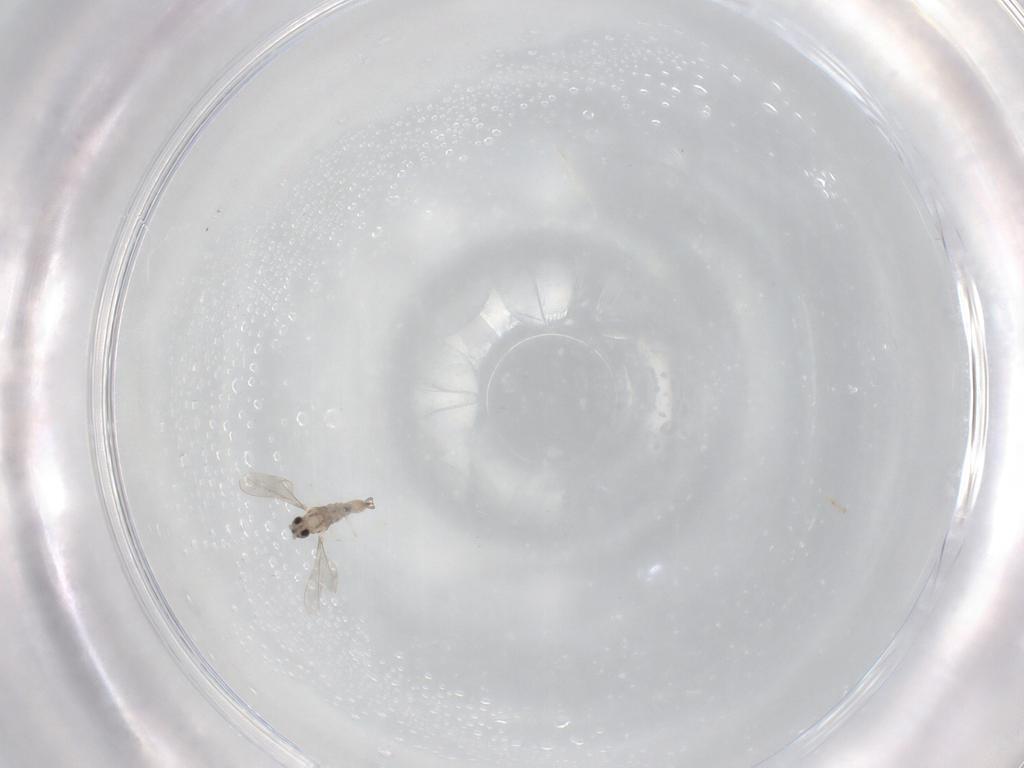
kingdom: Animalia
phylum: Arthropoda
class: Insecta
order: Diptera
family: Cecidomyiidae
